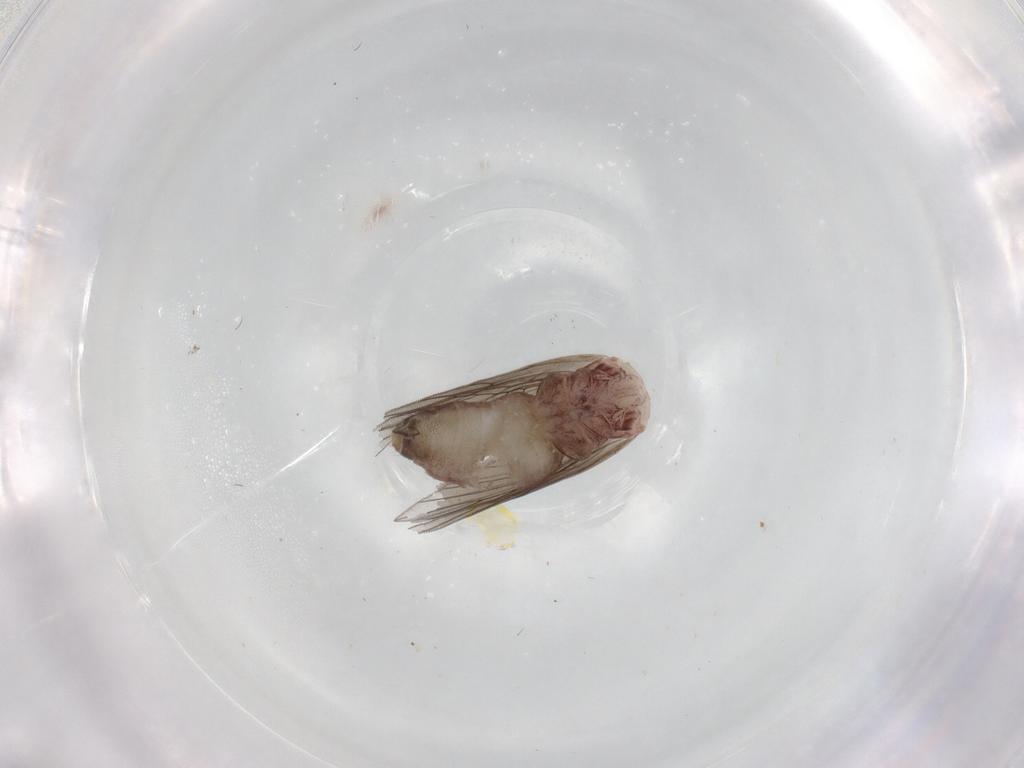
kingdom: Animalia
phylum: Arthropoda
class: Insecta
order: Psocodea
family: Lepidopsocidae
